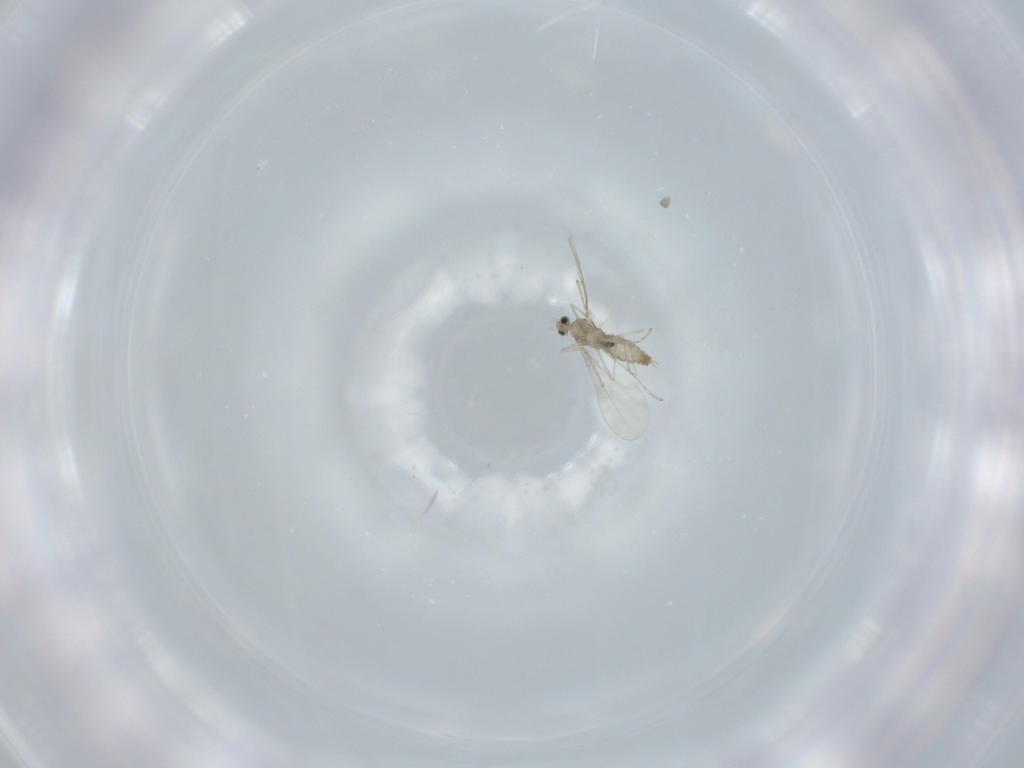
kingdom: Animalia
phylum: Arthropoda
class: Insecta
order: Diptera
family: Cecidomyiidae
